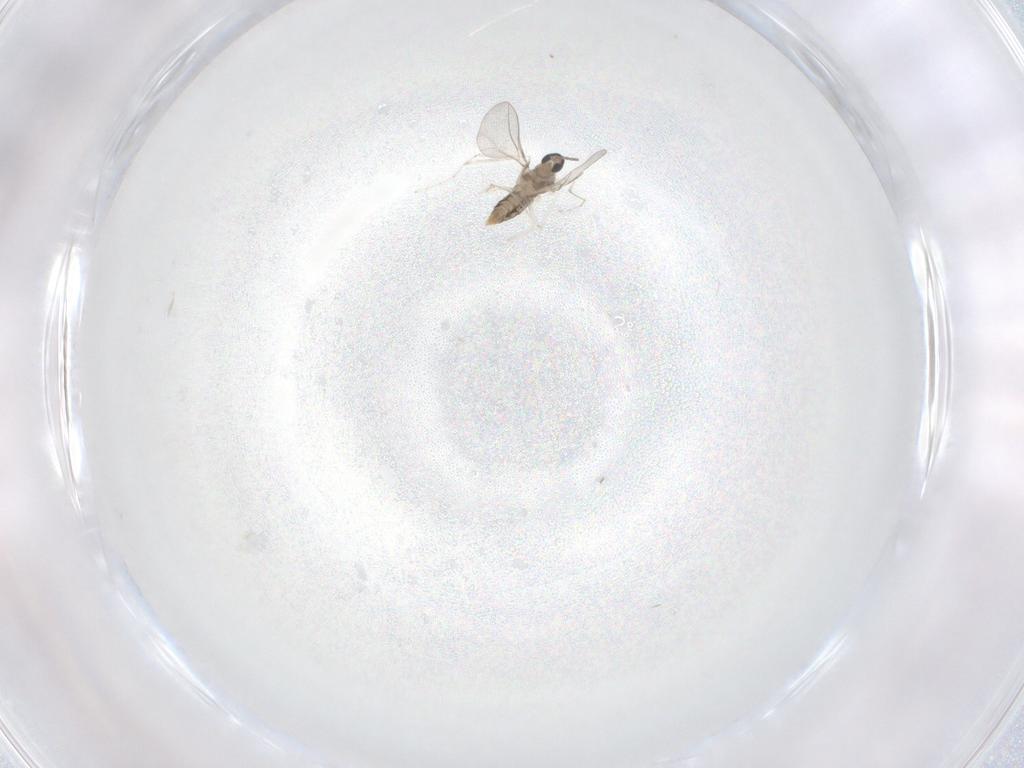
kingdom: Animalia
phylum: Arthropoda
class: Insecta
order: Diptera
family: Cecidomyiidae
